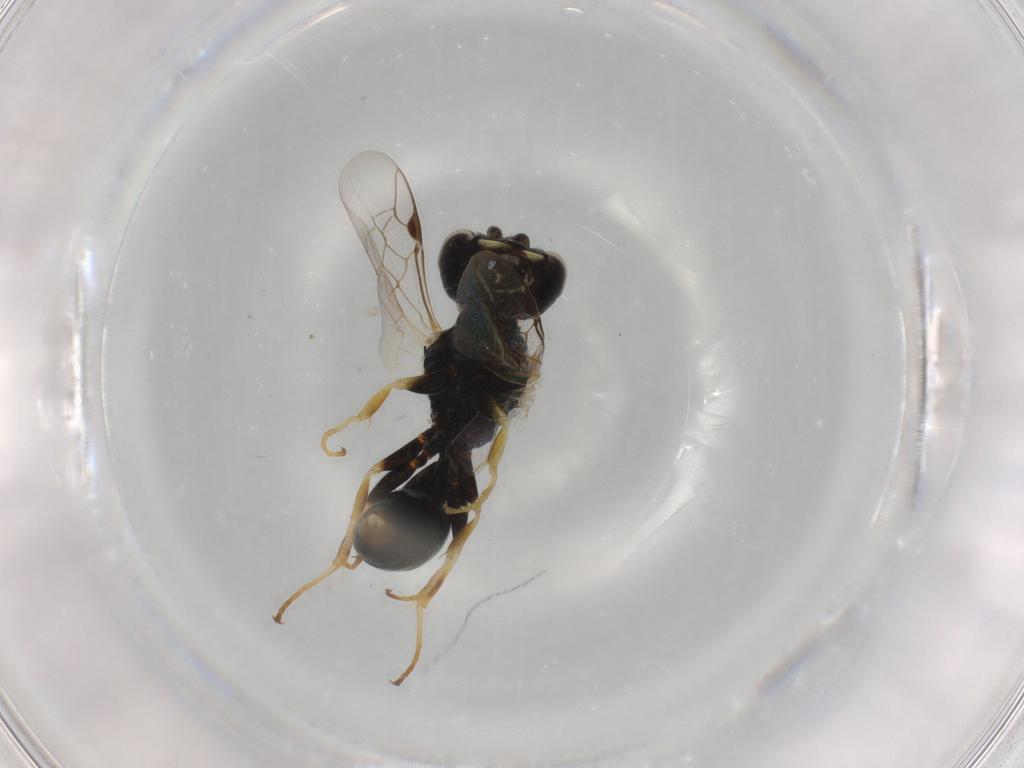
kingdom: Animalia
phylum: Arthropoda
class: Insecta
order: Hymenoptera
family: Crabronidae
